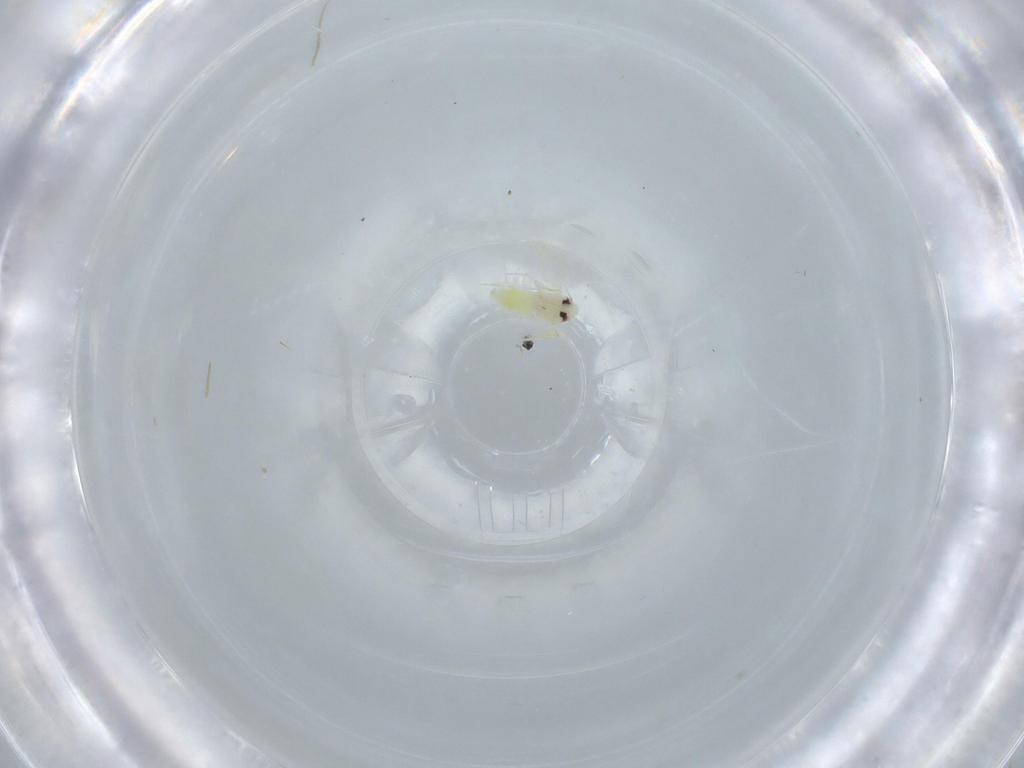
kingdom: Animalia
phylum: Arthropoda
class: Insecta
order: Hemiptera
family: Aleyrodidae
